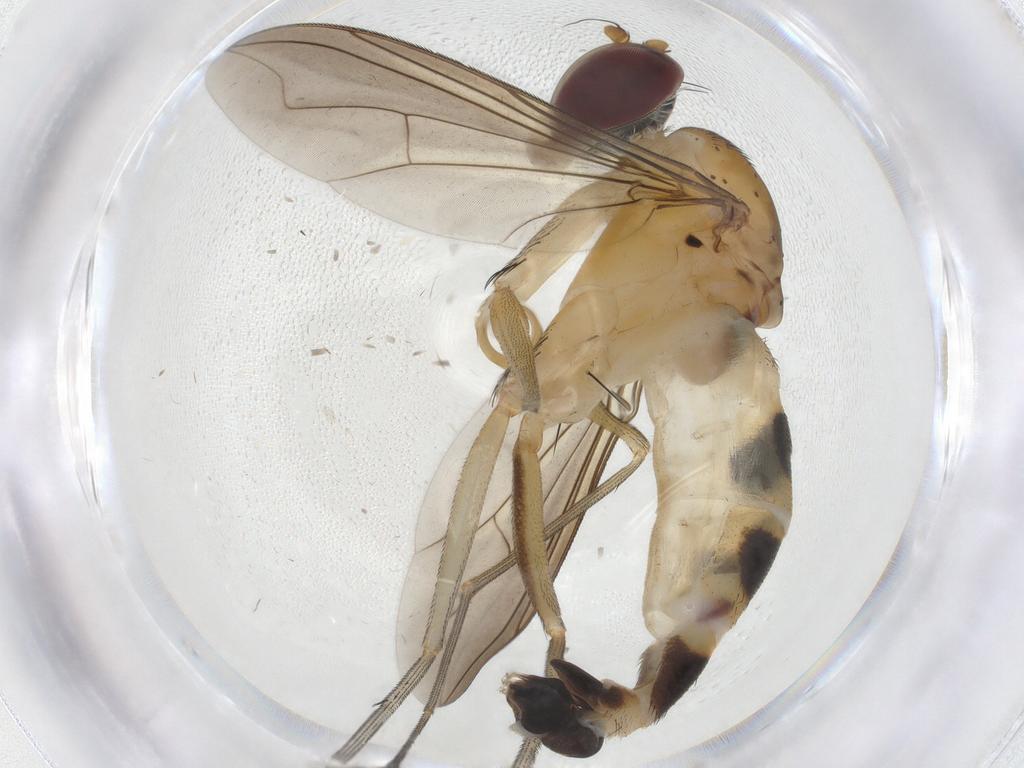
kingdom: Animalia
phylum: Arthropoda
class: Insecta
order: Diptera
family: Dolichopodidae
